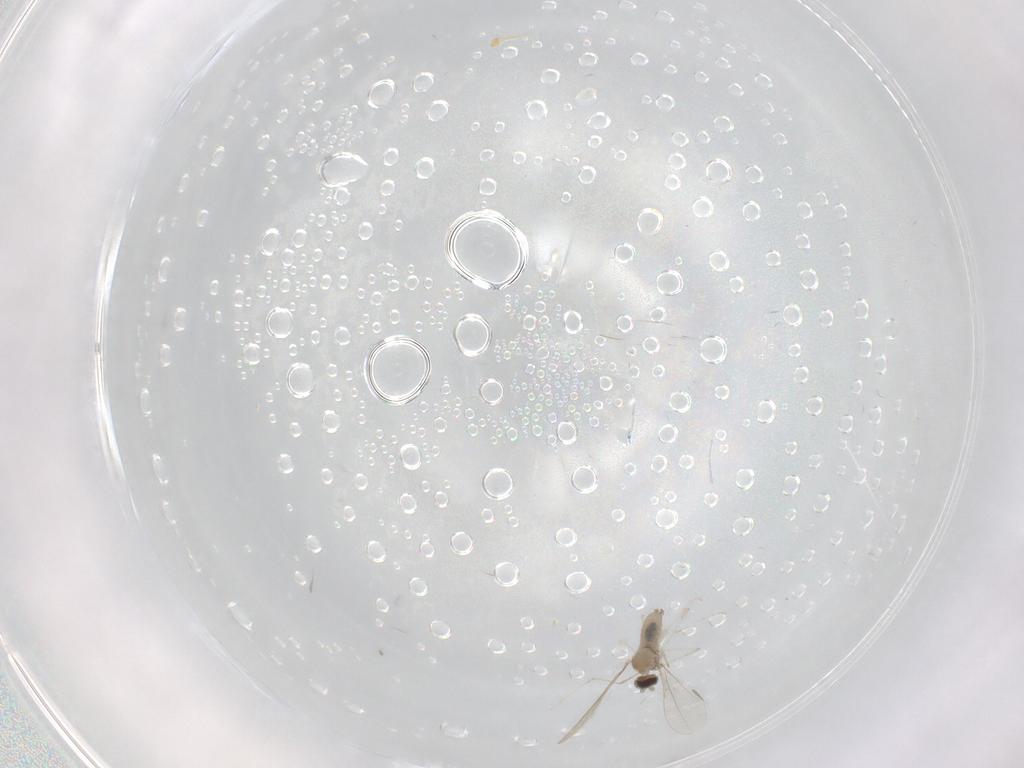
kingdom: Animalia
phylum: Arthropoda
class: Insecta
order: Diptera
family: Cecidomyiidae
